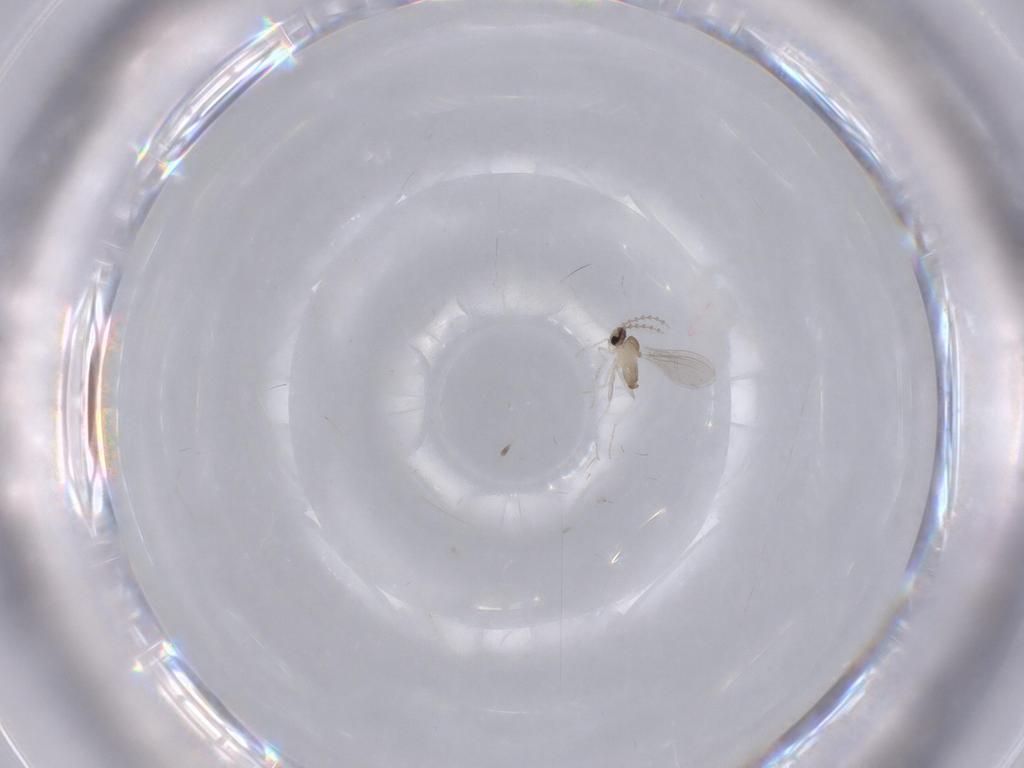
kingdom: Animalia
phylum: Arthropoda
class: Insecta
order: Diptera
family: Cecidomyiidae
